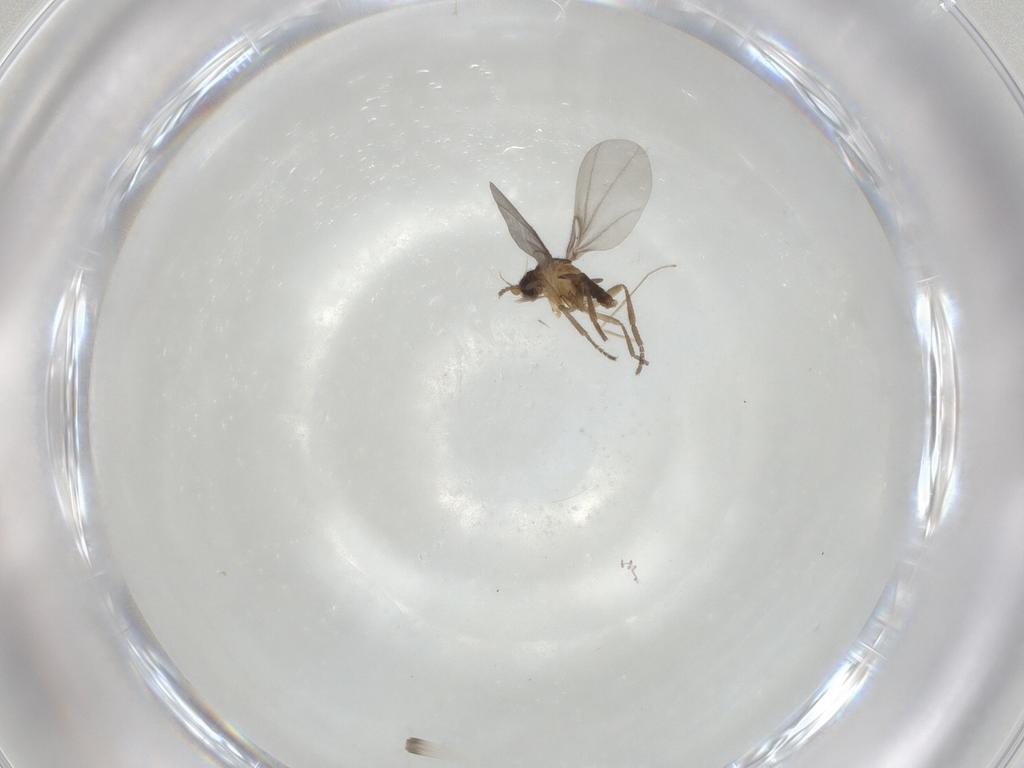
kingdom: Animalia
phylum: Arthropoda
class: Insecta
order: Diptera
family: Phoridae
